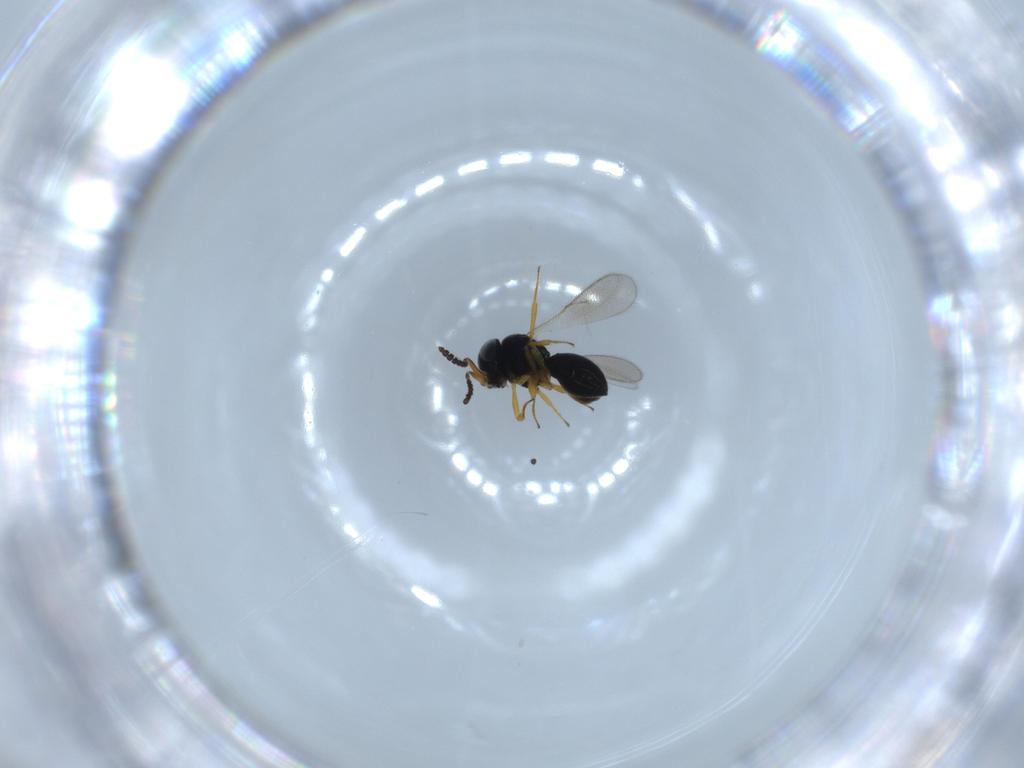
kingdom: Animalia
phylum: Arthropoda
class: Insecta
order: Hymenoptera
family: Scelionidae
